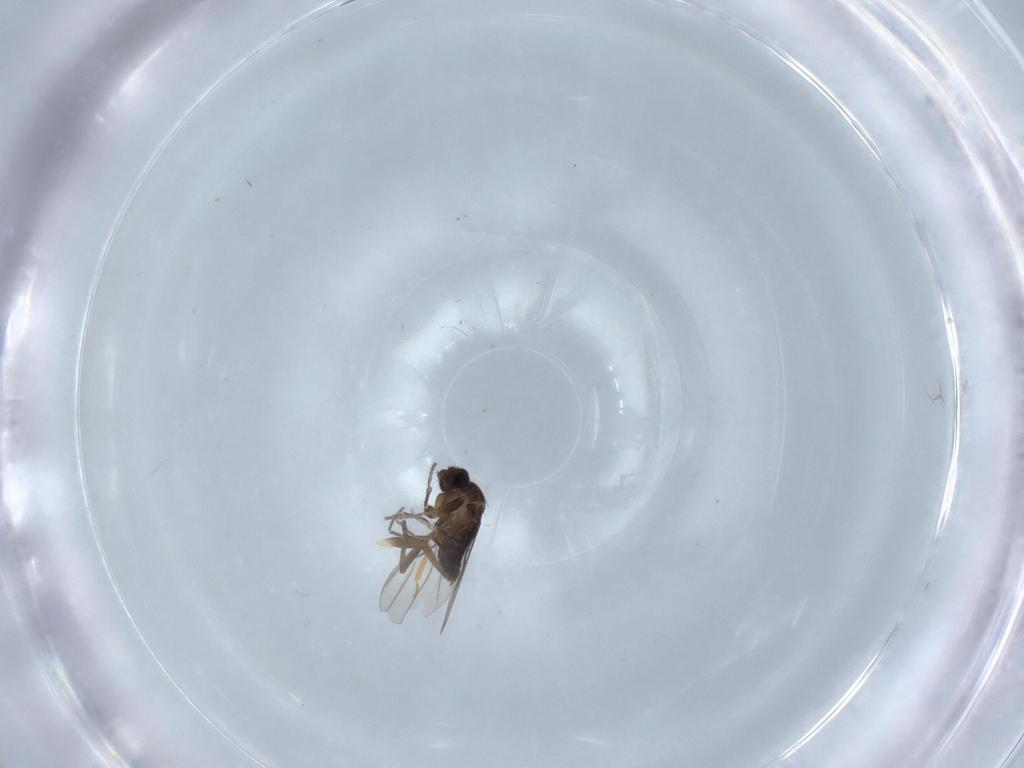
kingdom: Animalia
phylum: Arthropoda
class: Insecta
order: Diptera
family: Phoridae
